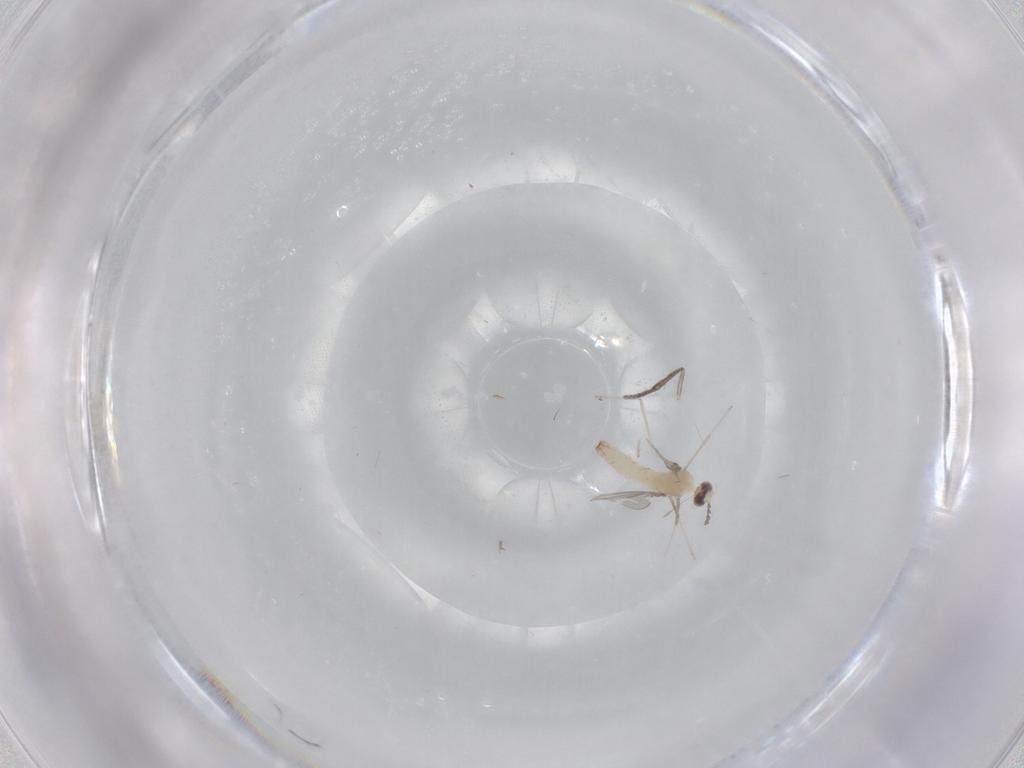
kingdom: Animalia
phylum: Arthropoda
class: Insecta
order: Diptera
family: Cecidomyiidae
